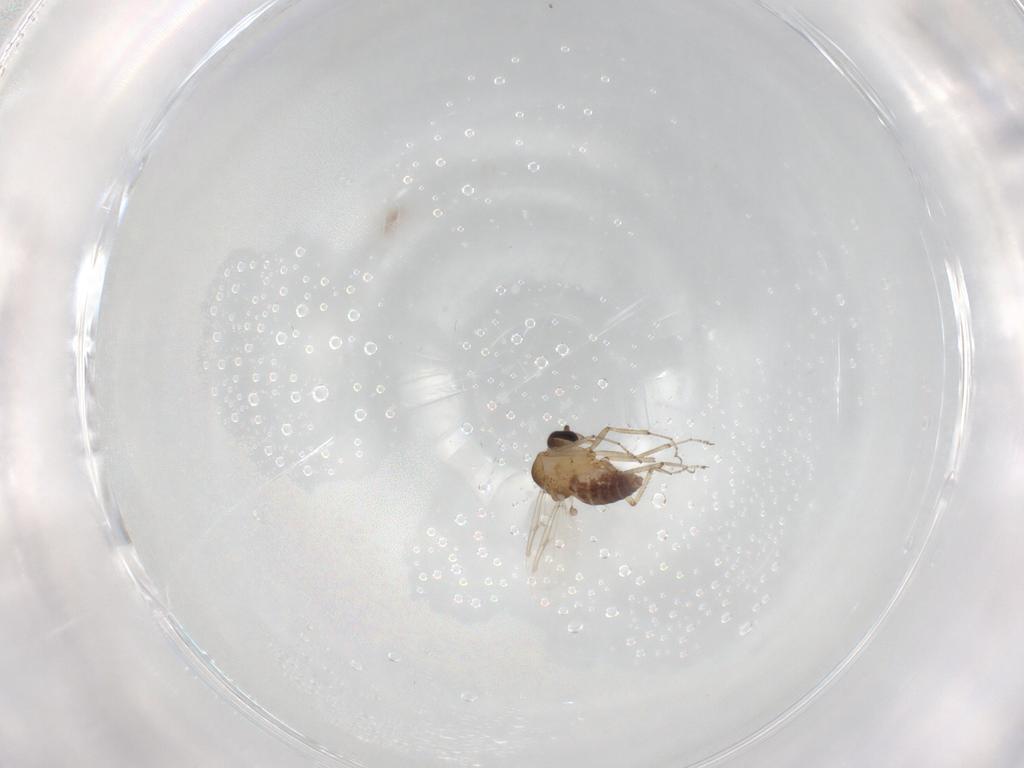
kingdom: Animalia
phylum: Arthropoda
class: Insecta
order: Diptera
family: Ceratopogonidae
